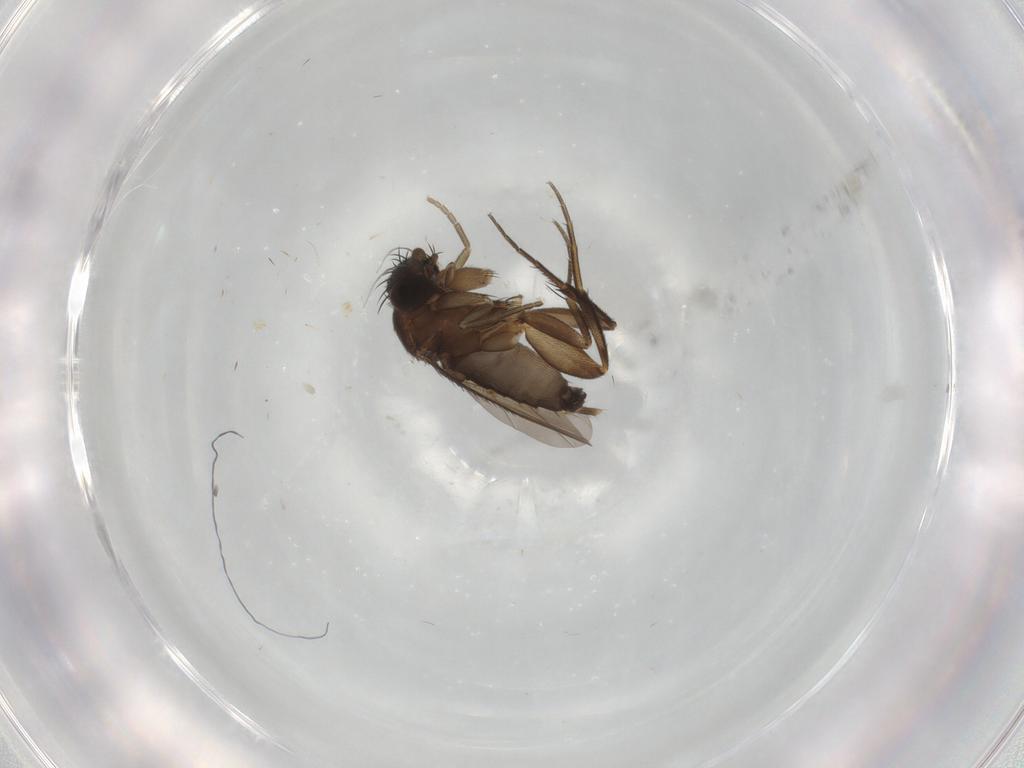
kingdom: Animalia
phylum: Arthropoda
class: Insecta
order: Diptera
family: Phoridae
